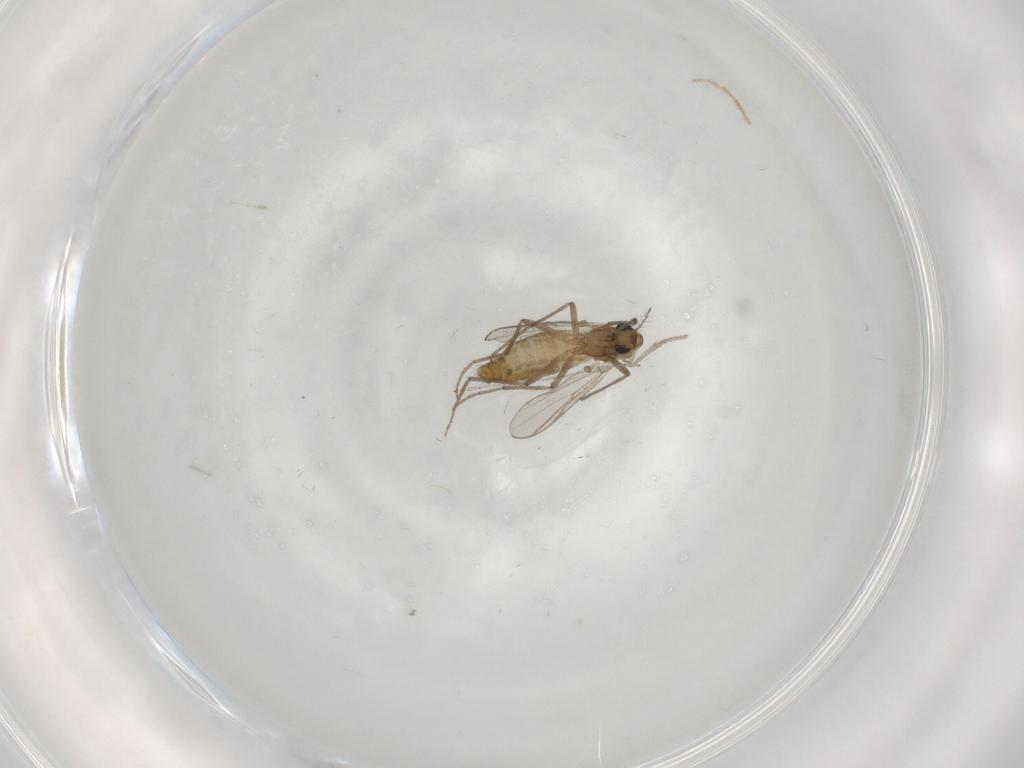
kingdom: Animalia
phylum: Arthropoda
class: Insecta
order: Diptera
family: Chironomidae
